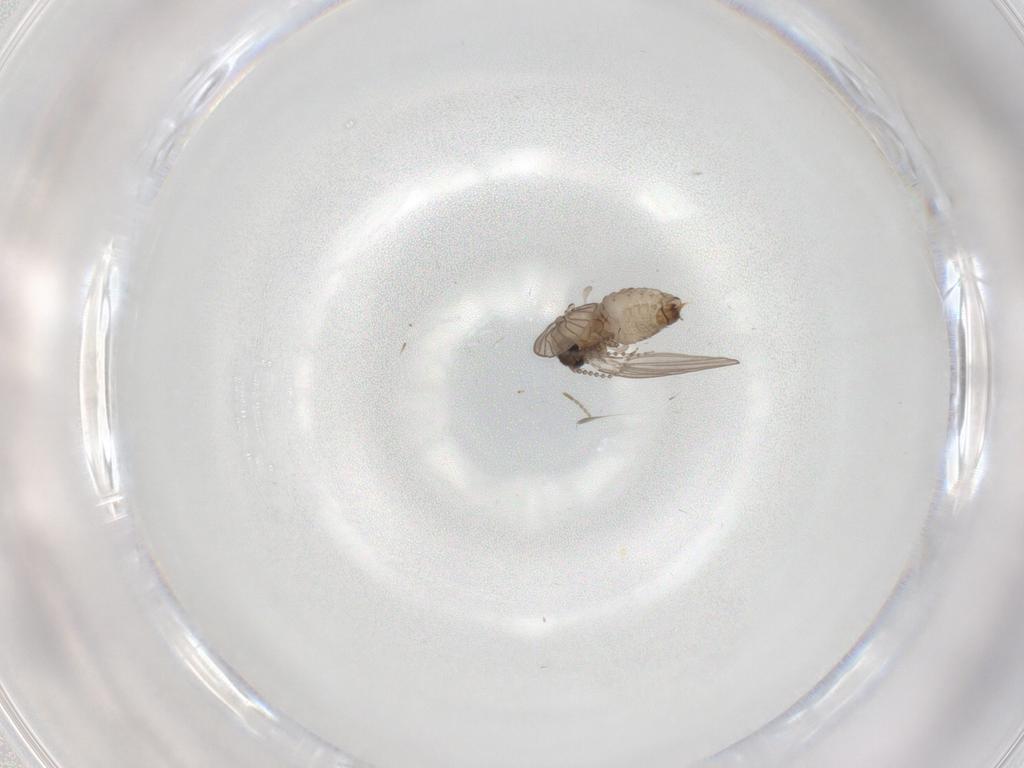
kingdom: Animalia
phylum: Arthropoda
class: Insecta
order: Diptera
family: Psychodidae
